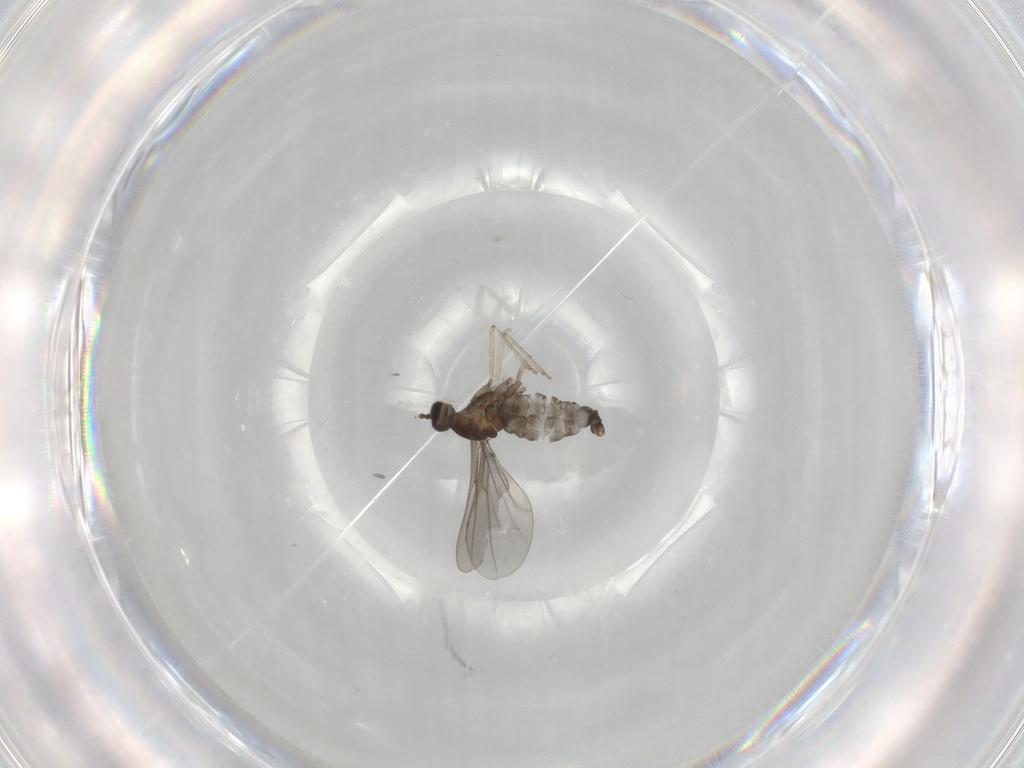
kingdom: Animalia
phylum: Arthropoda
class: Insecta
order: Diptera
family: Cecidomyiidae
